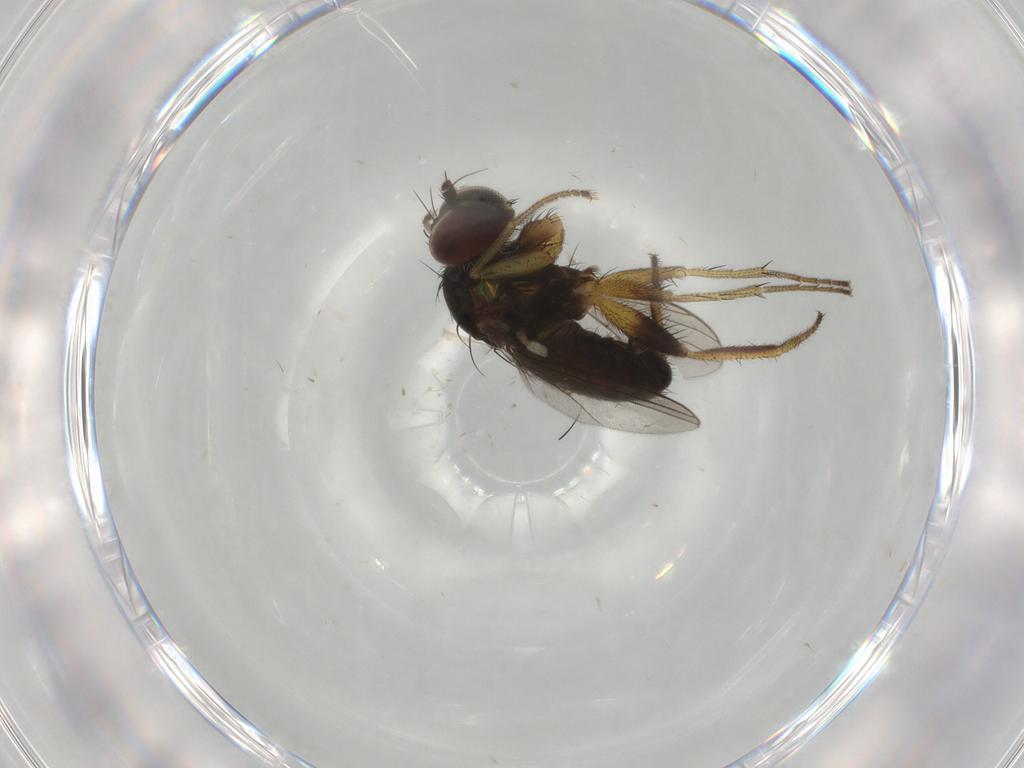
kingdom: Animalia
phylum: Arthropoda
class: Insecta
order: Diptera
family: Dolichopodidae
